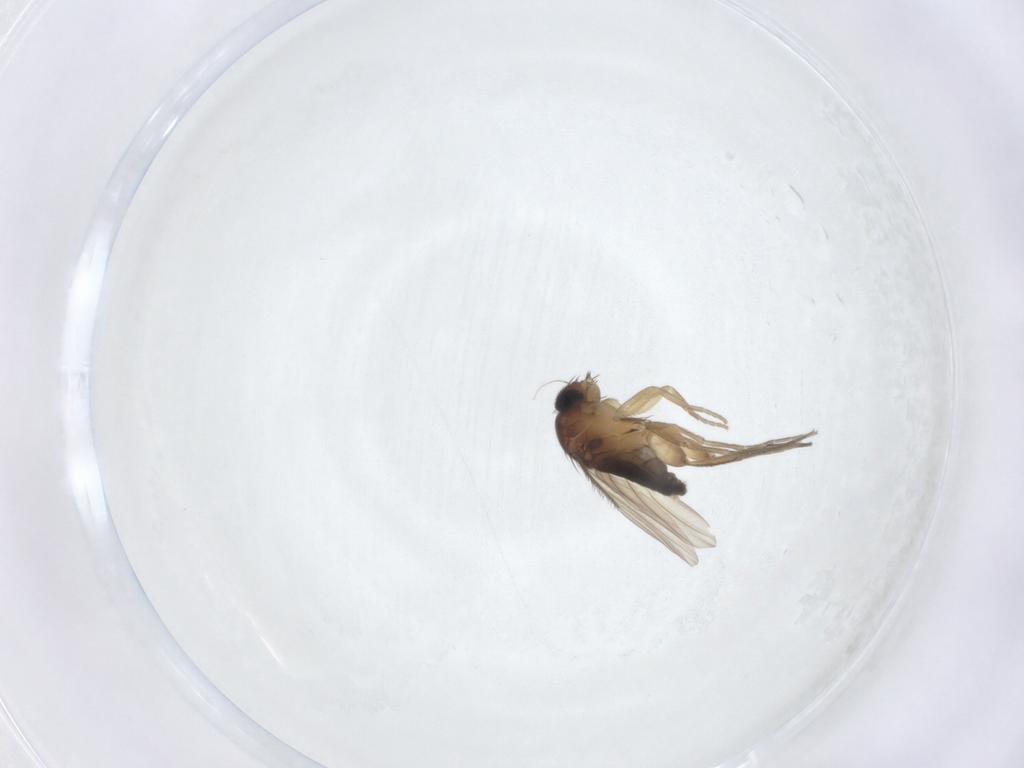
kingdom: Animalia
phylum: Arthropoda
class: Insecta
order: Diptera
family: Phoridae
